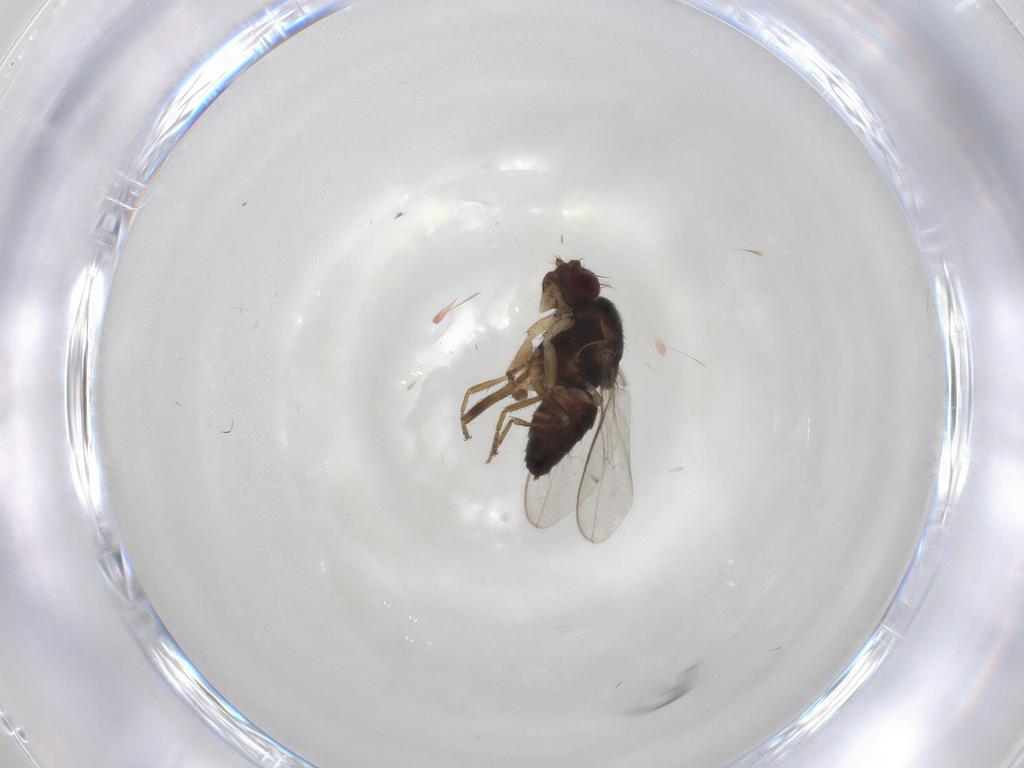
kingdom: Animalia
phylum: Arthropoda
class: Insecta
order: Diptera
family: Sphaeroceridae
